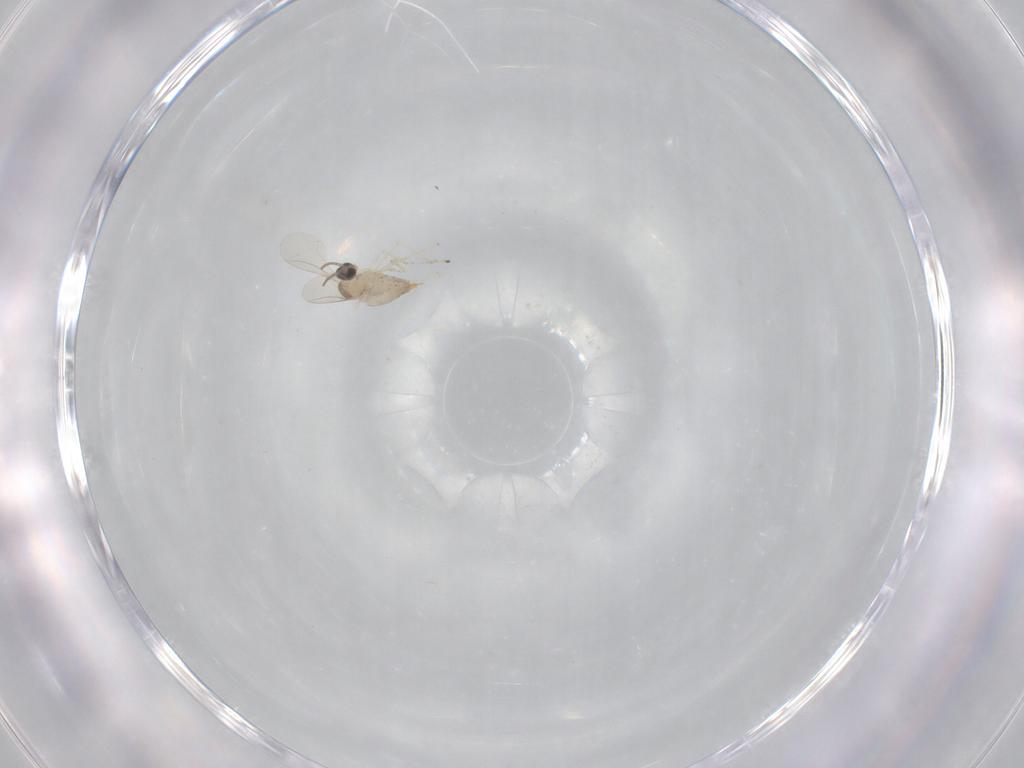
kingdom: Animalia
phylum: Arthropoda
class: Insecta
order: Diptera
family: Cecidomyiidae
